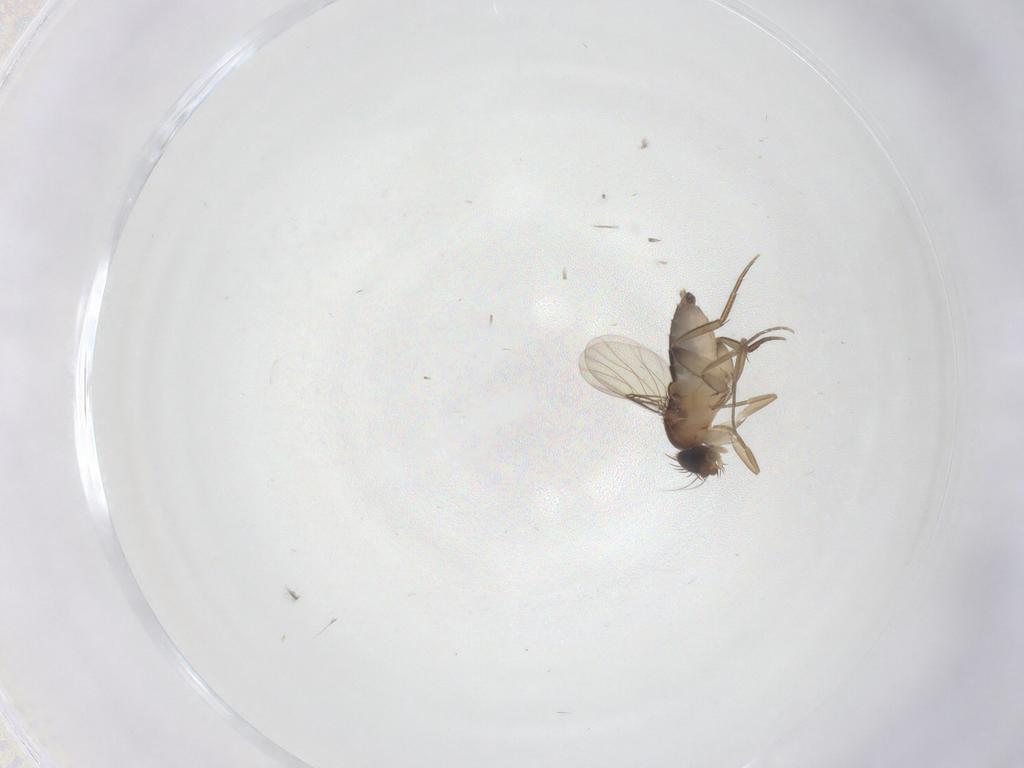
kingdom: Animalia
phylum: Arthropoda
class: Insecta
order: Diptera
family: Phoridae
